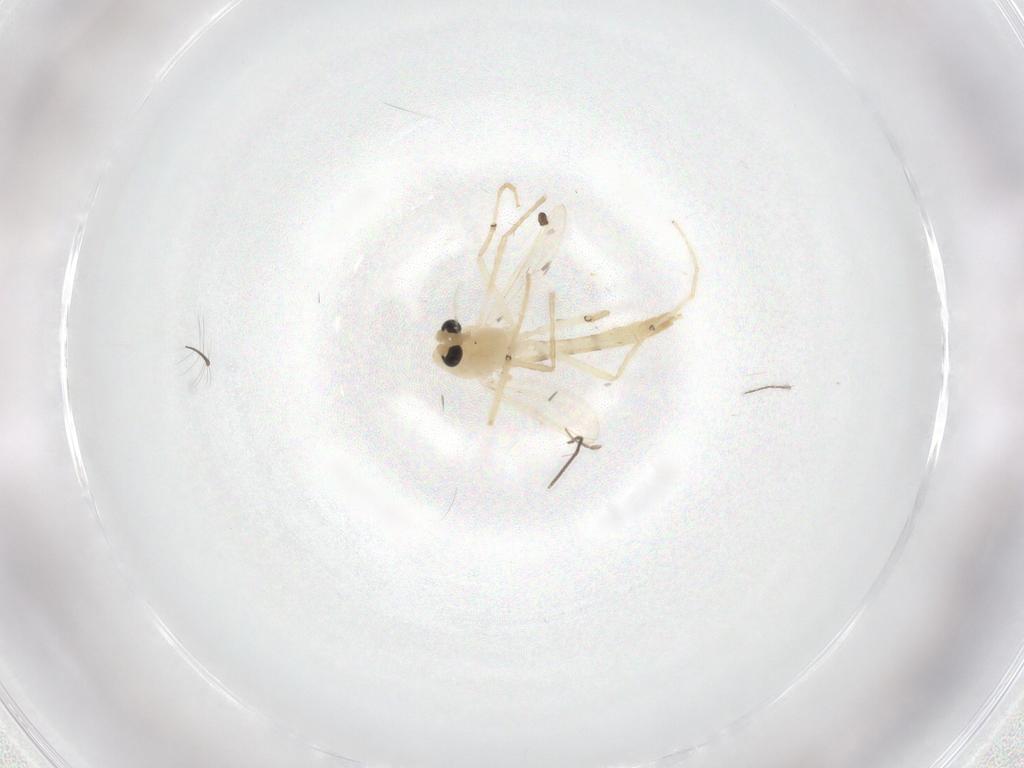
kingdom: Animalia
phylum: Arthropoda
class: Insecta
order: Diptera
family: Chironomidae
